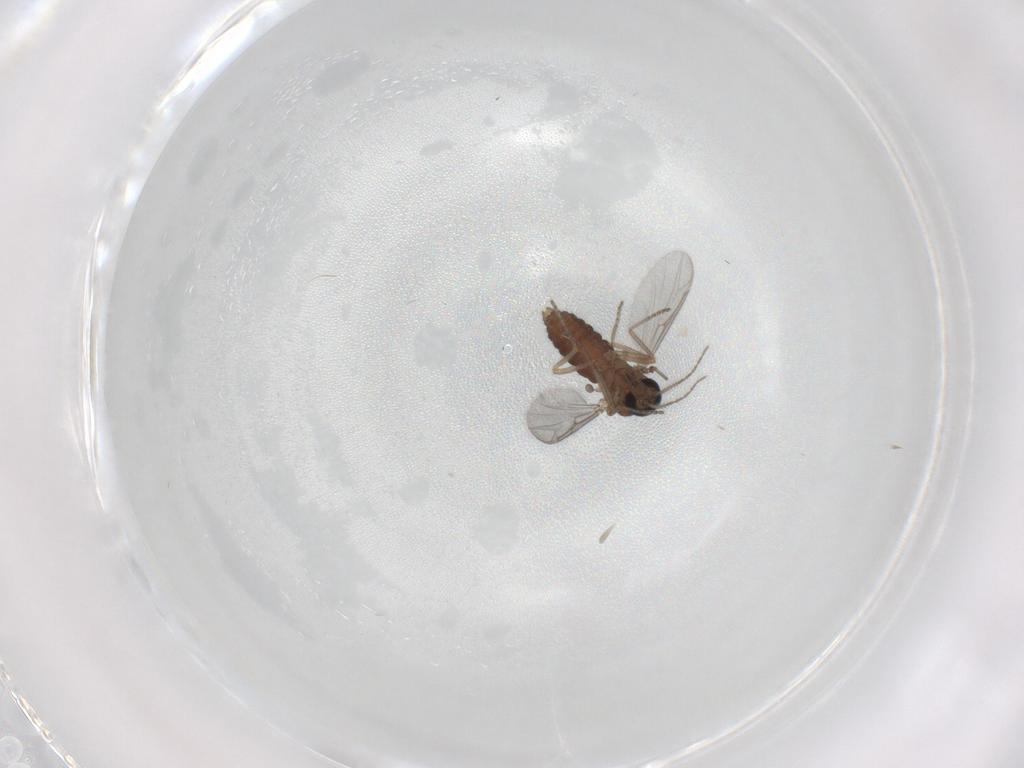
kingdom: Animalia
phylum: Arthropoda
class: Insecta
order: Diptera
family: Ceratopogonidae
